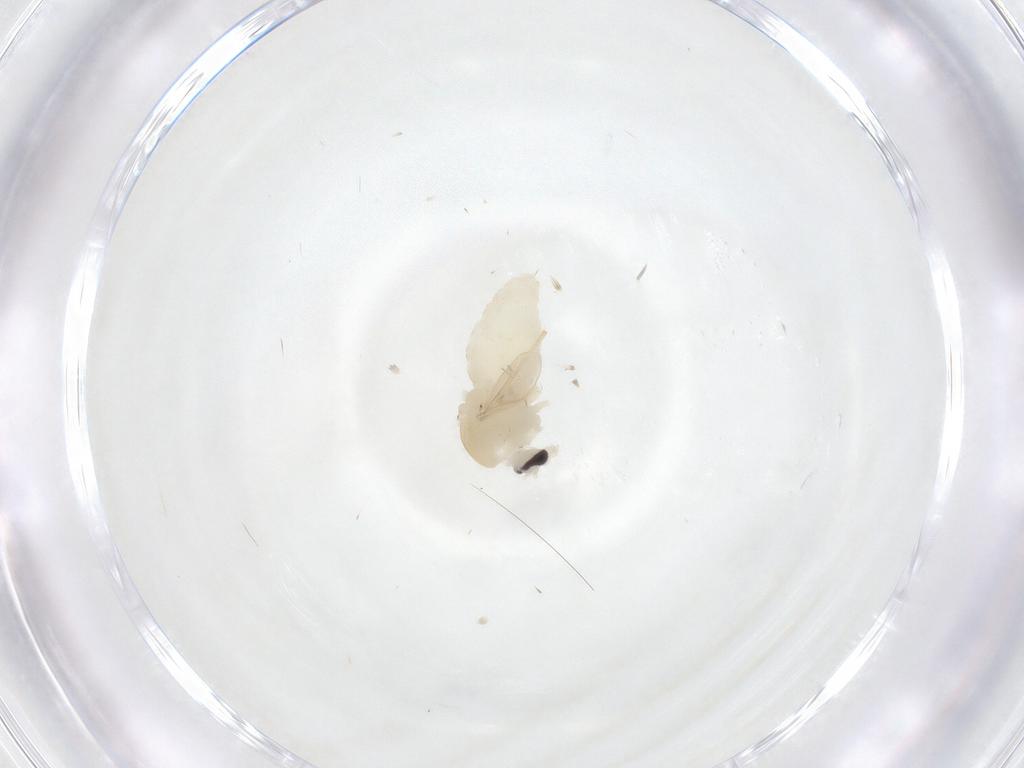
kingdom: Animalia
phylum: Arthropoda
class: Insecta
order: Diptera
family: Chironomidae
